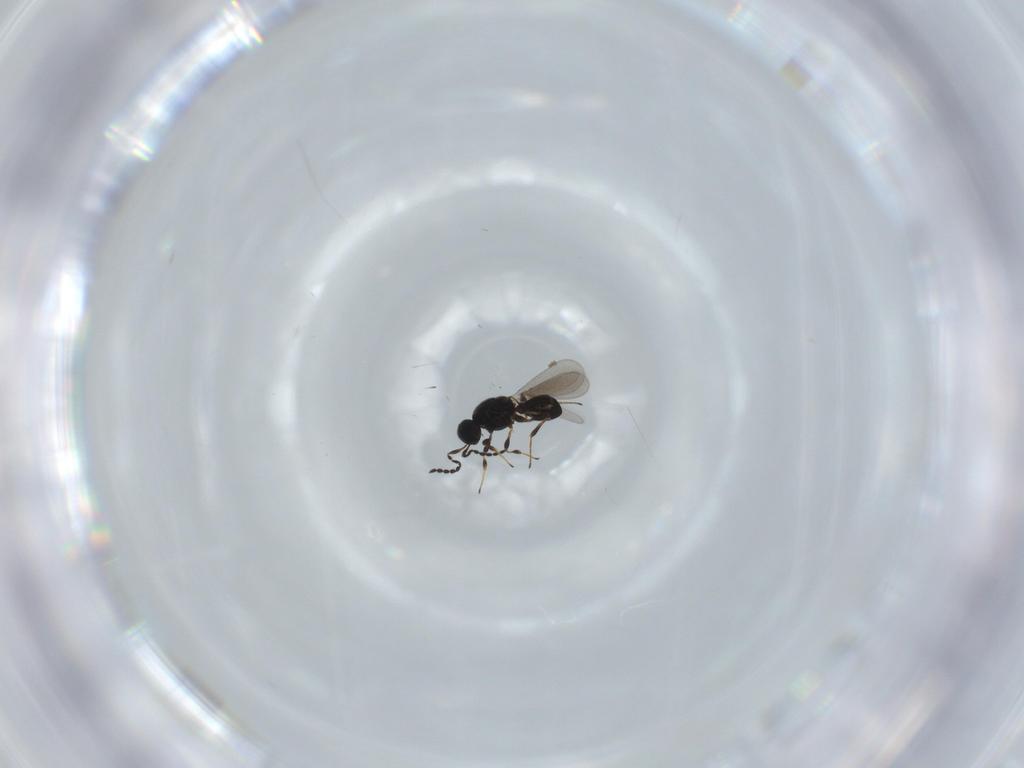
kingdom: Animalia
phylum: Arthropoda
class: Insecta
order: Hymenoptera
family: Platygastridae
